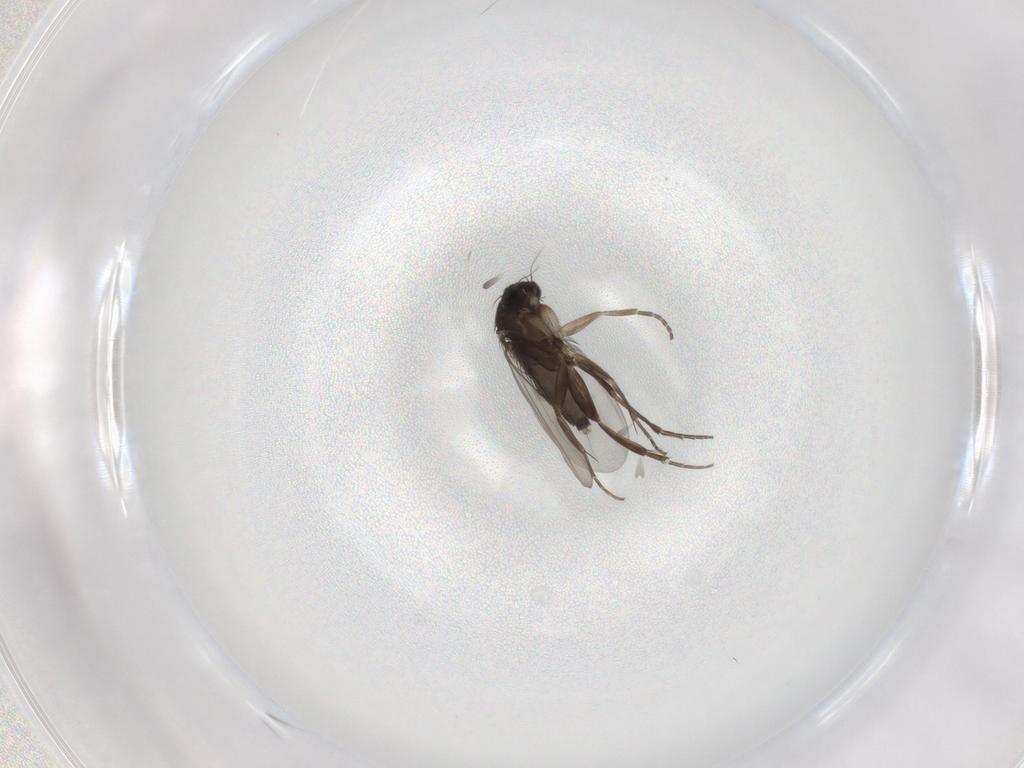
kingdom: Animalia
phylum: Arthropoda
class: Insecta
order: Diptera
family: Phoridae
